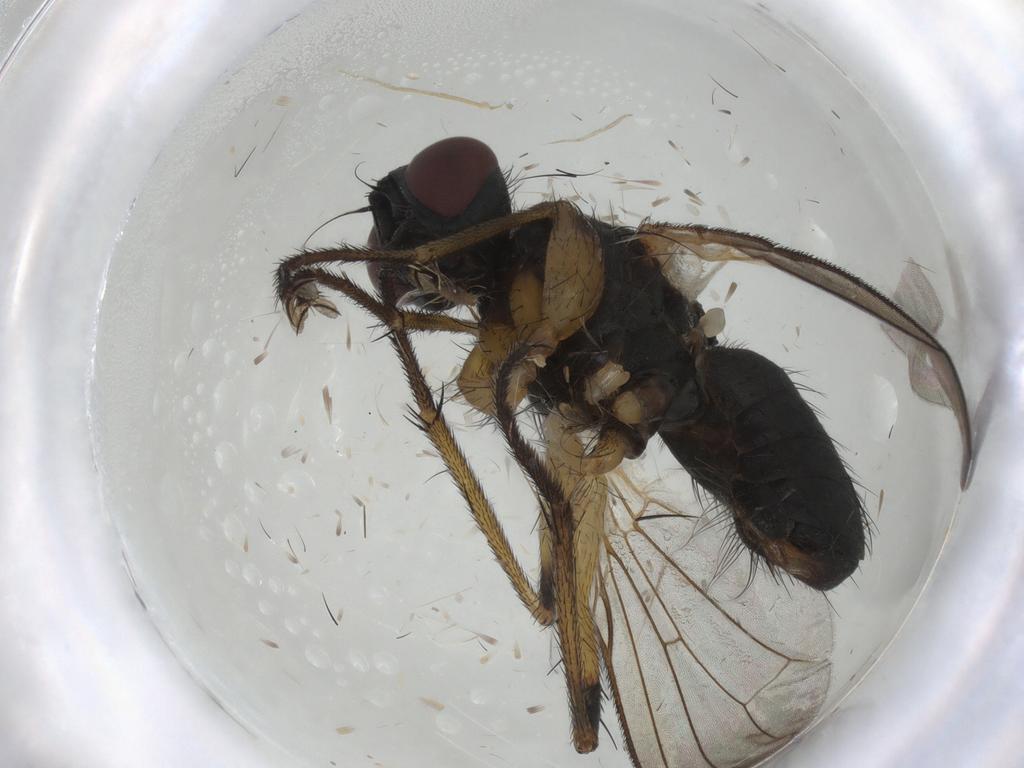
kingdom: Animalia
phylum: Arthropoda
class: Insecta
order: Diptera
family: Muscidae
